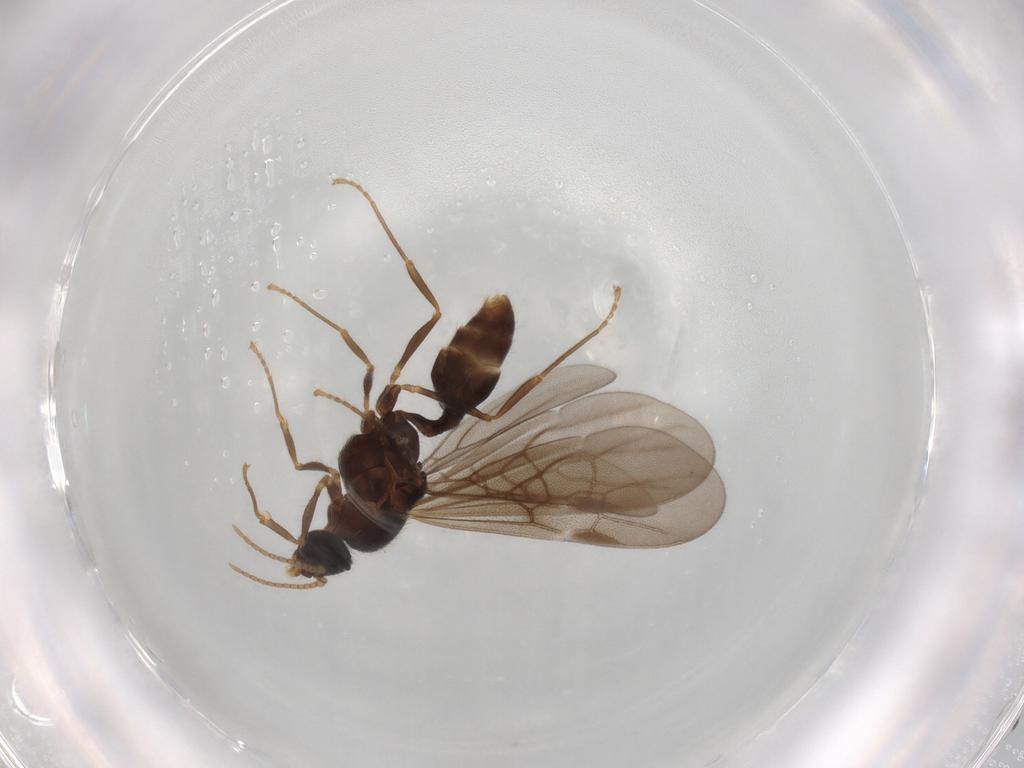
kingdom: Animalia
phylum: Arthropoda
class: Insecta
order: Hymenoptera
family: Formicidae
